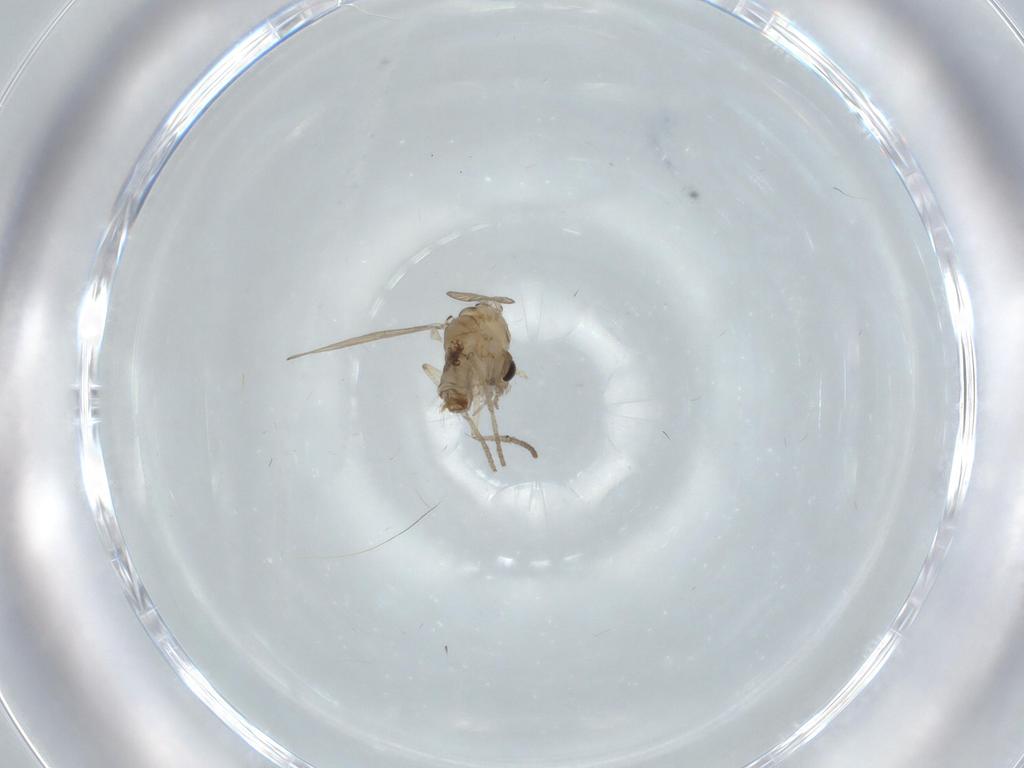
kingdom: Animalia
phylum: Arthropoda
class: Insecta
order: Diptera
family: Psychodidae
